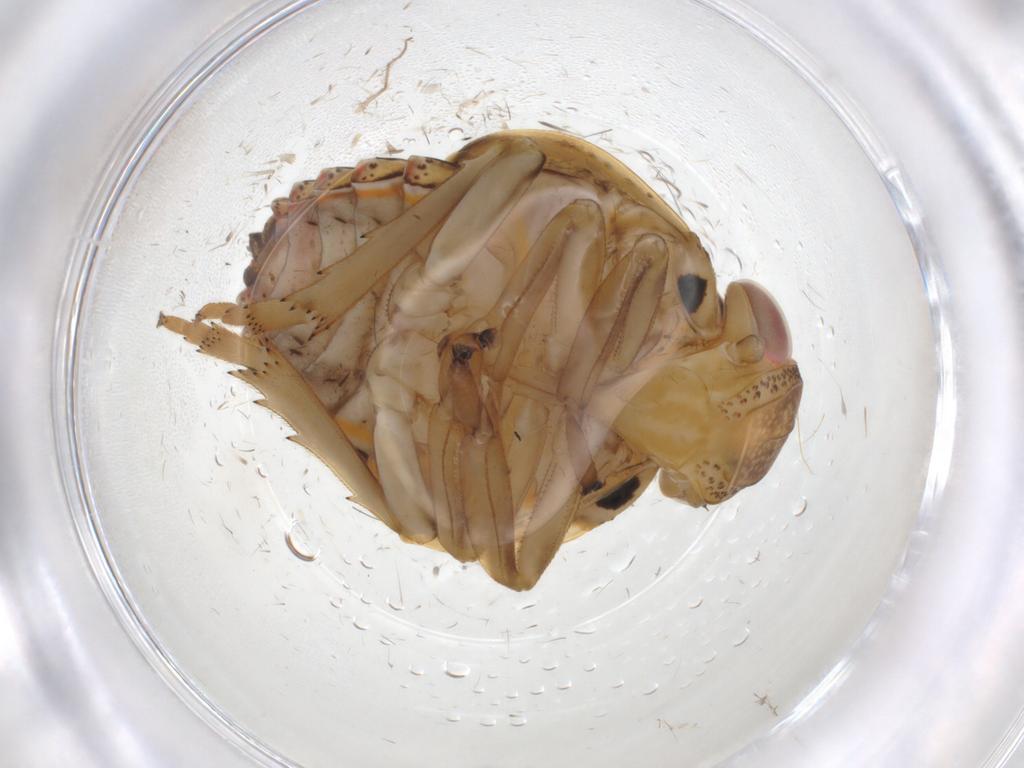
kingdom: Animalia
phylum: Arthropoda
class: Insecta
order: Hemiptera
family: Issidae
